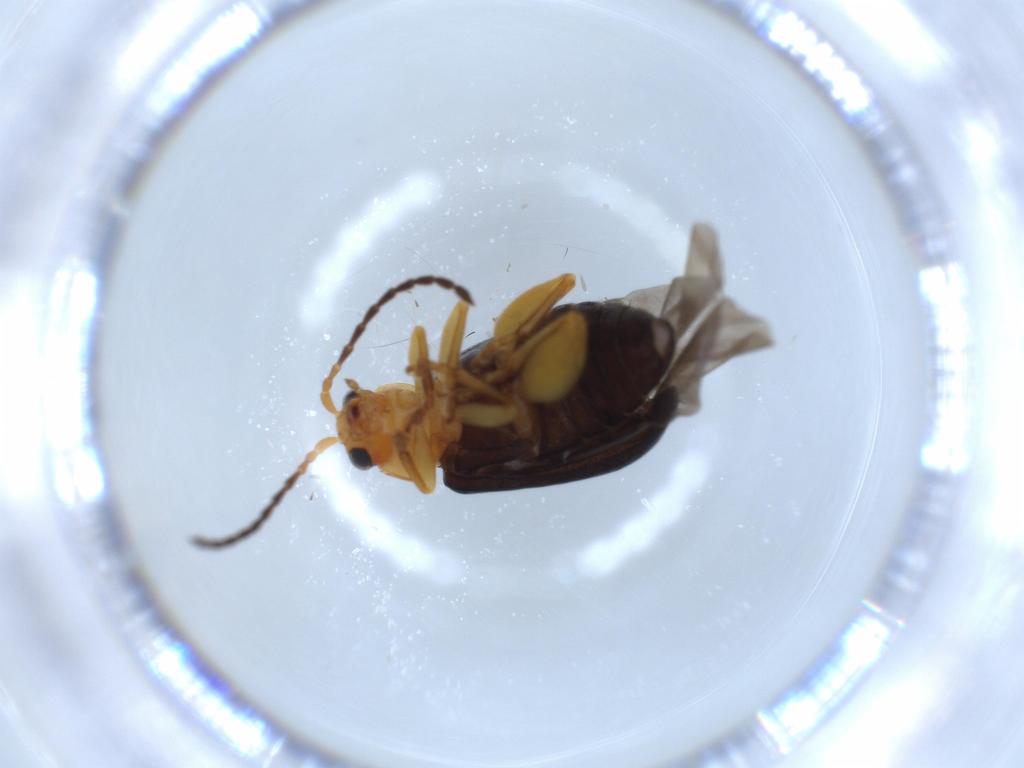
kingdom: Animalia
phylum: Arthropoda
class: Insecta
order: Coleoptera
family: Chrysomelidae
